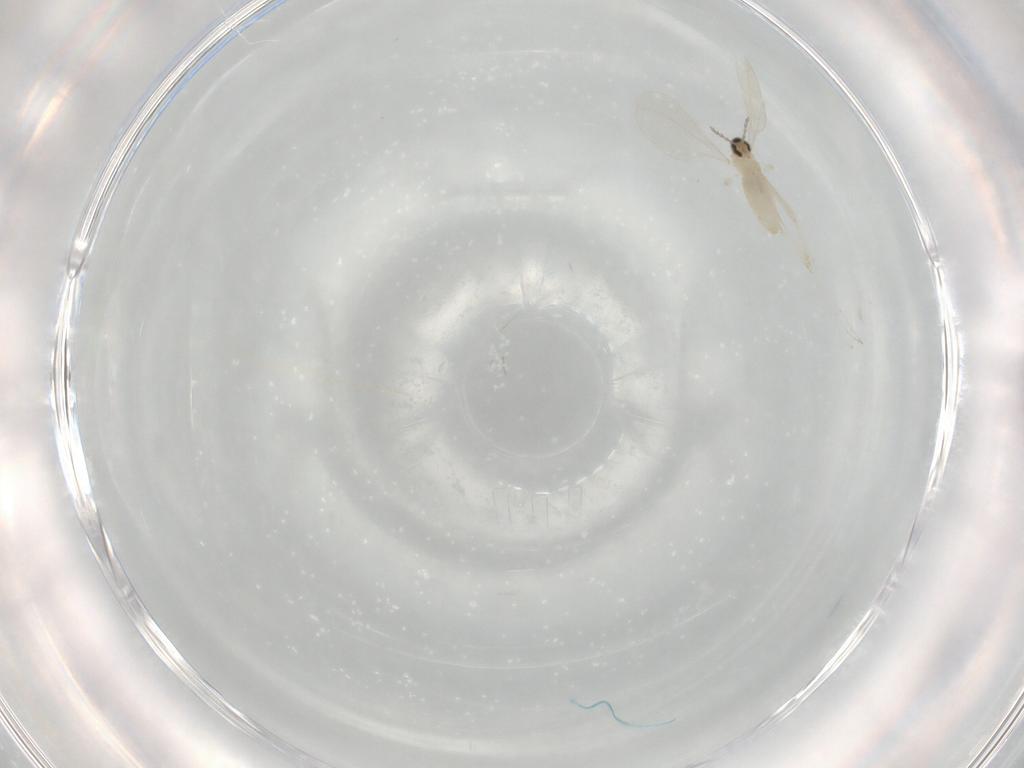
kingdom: Animalia
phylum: Arthropoda
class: Insecta
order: Diptera
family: Cecidomyiidae
